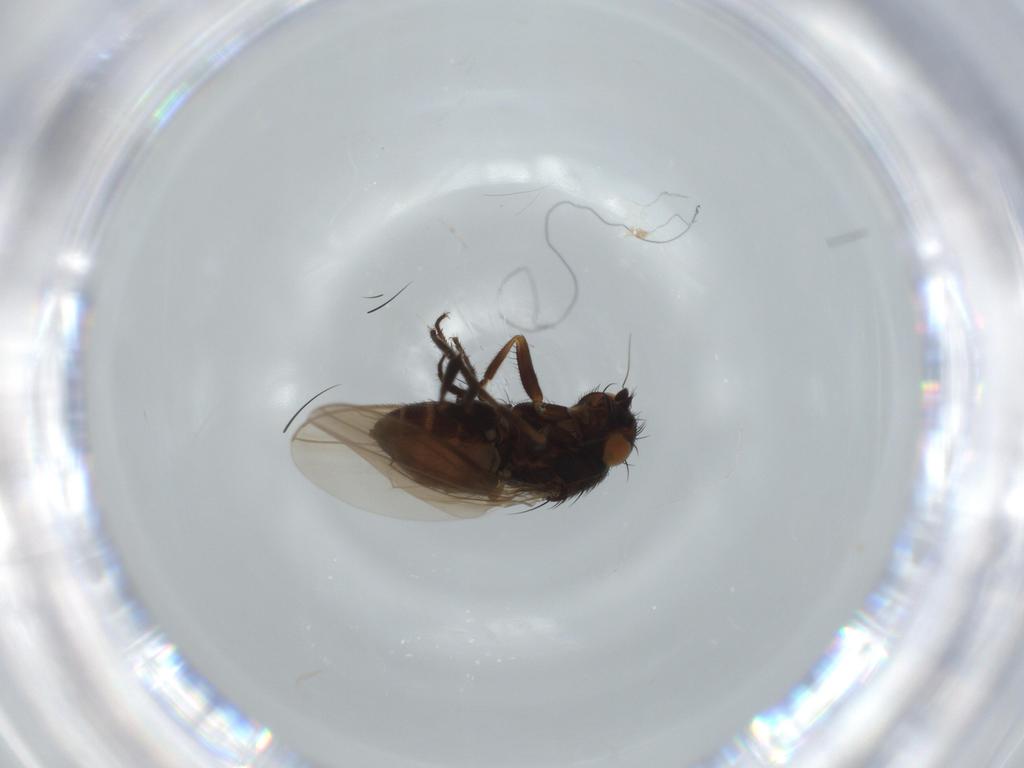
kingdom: Animalia
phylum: Arthropoda
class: Insecta
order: Diptera
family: Sphaeroceridae
